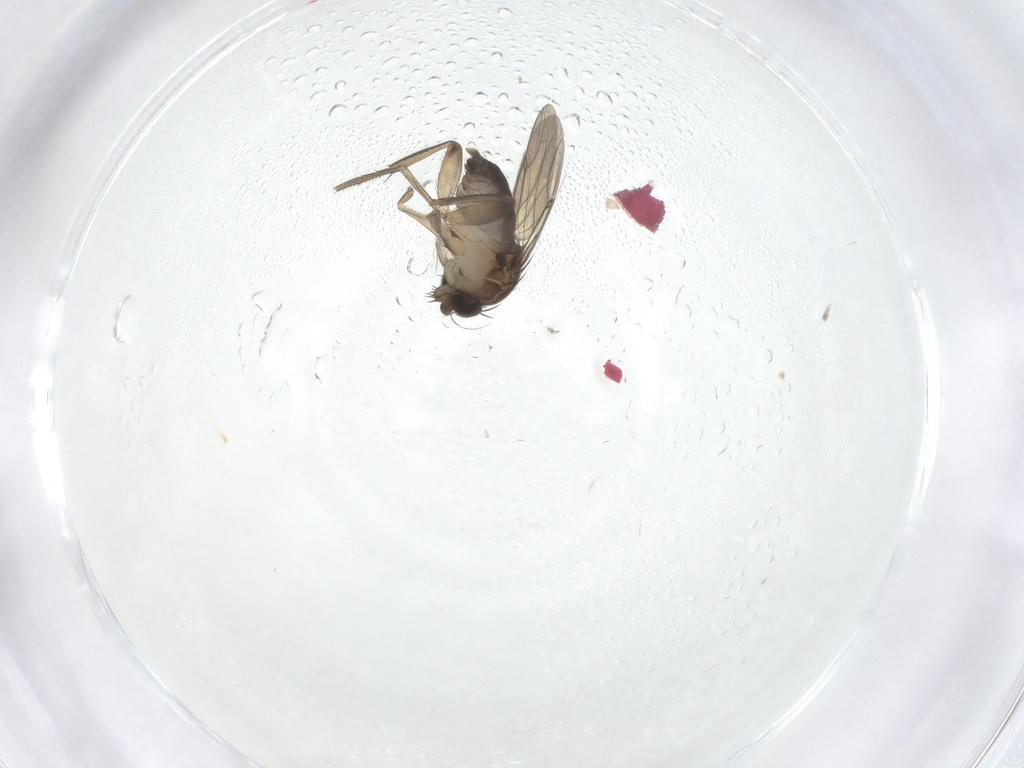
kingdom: Animalia
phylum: Arthropoda
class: Insecta
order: Diptera
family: Phoridae
